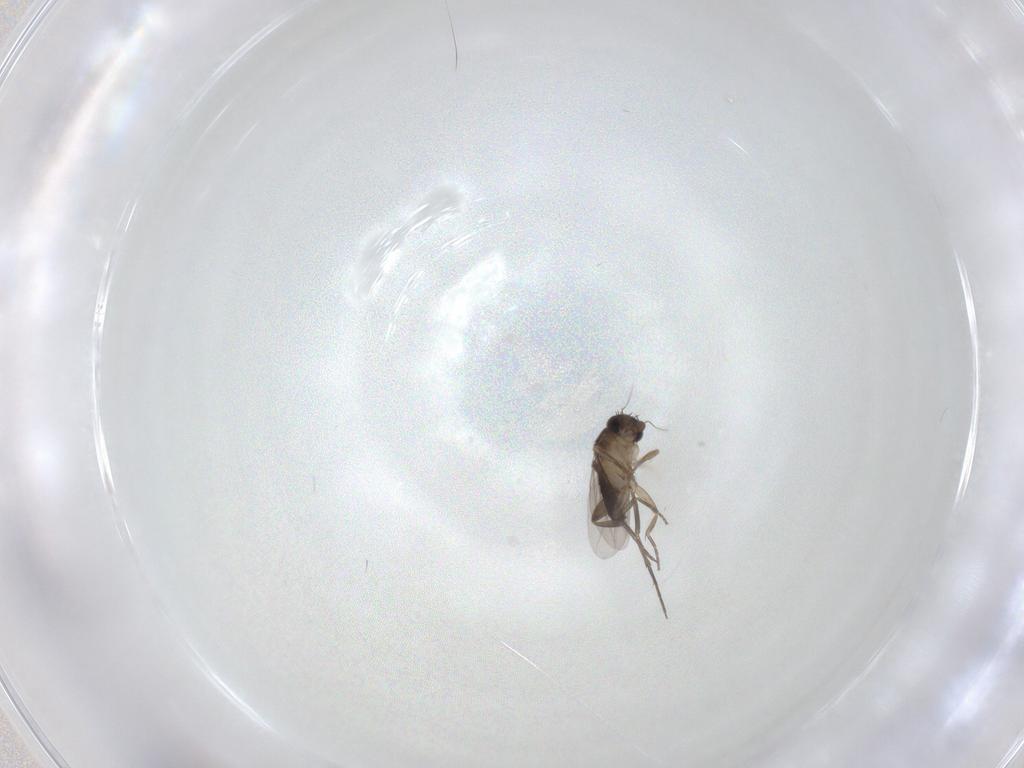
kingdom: Animalia
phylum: Arthropoda
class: Insecta
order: Diptera
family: Phoridae
